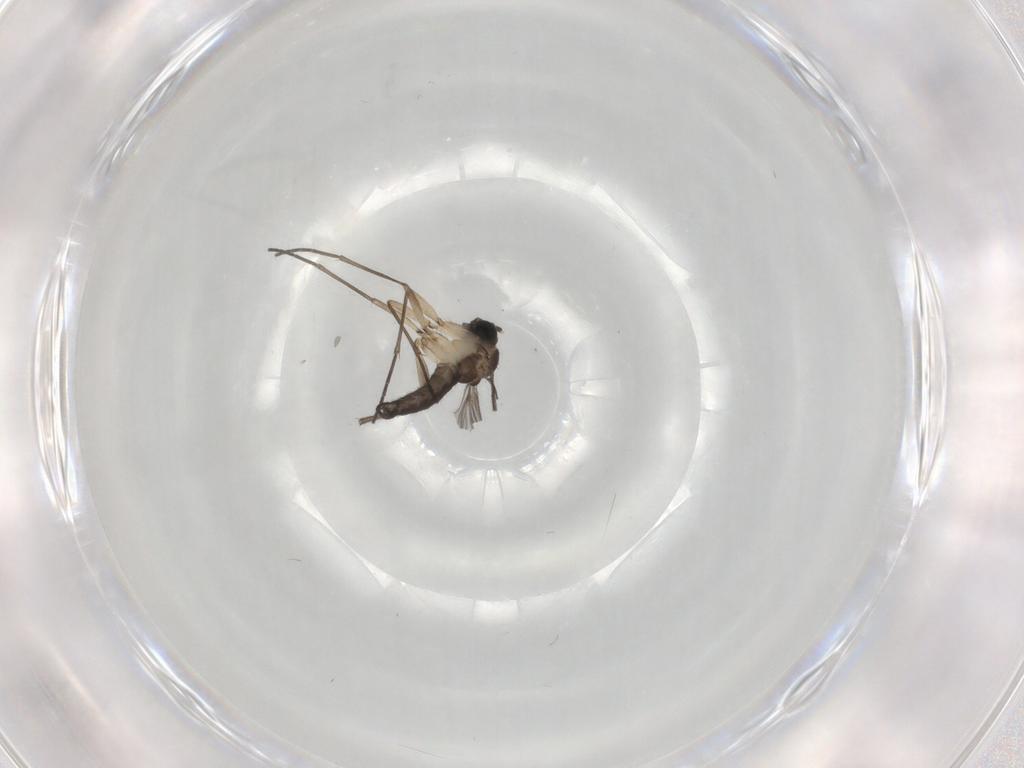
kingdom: Animalia
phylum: Arthropoda
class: Insecta
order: Diptera
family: Sciaridae
